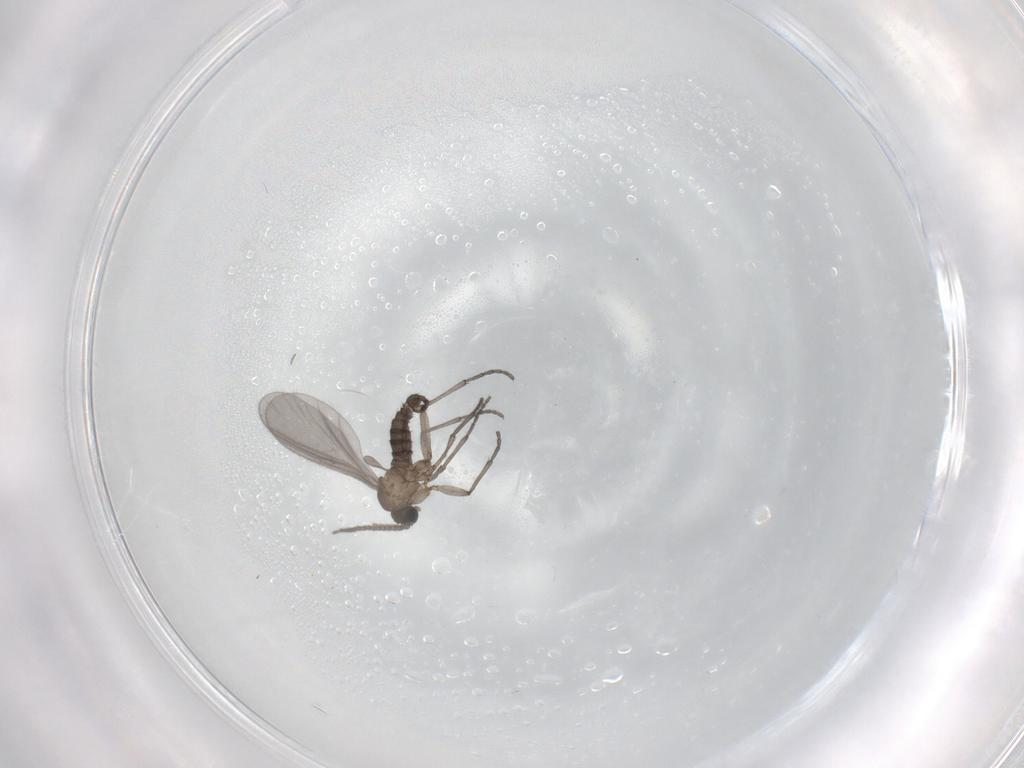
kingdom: Animalia
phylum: Arthropoda
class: Insecta
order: Diptera
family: Sciaridae
